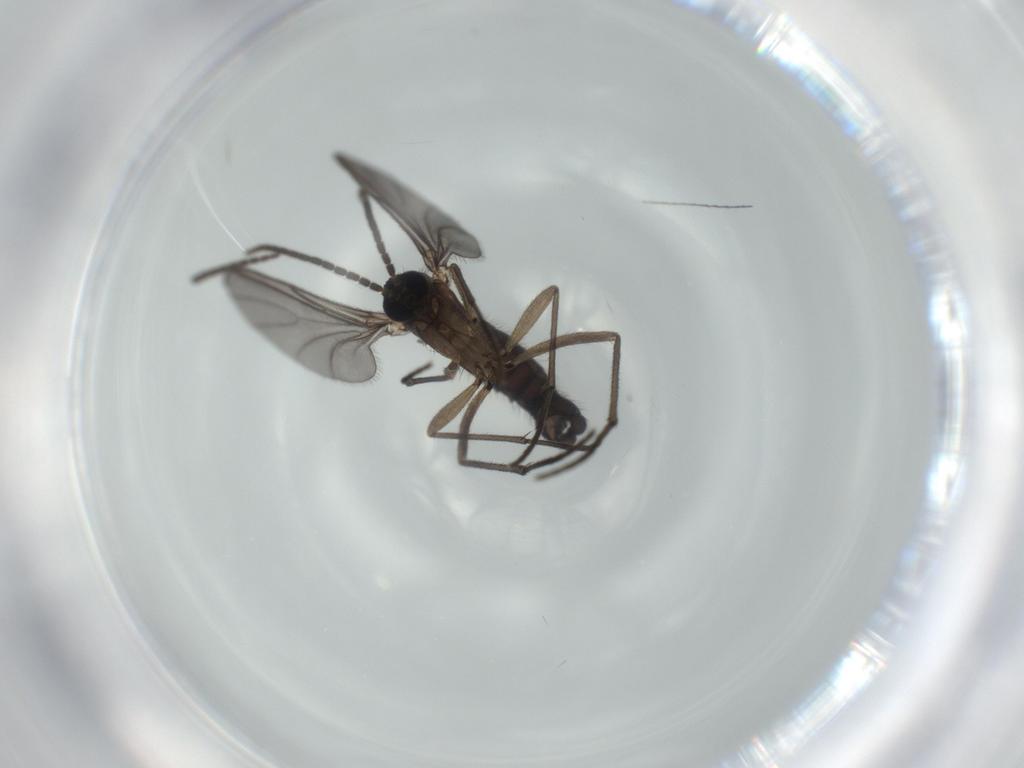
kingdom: Animalia
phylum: Arthropoda
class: Insecta
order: Diptera
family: Sciaridae
